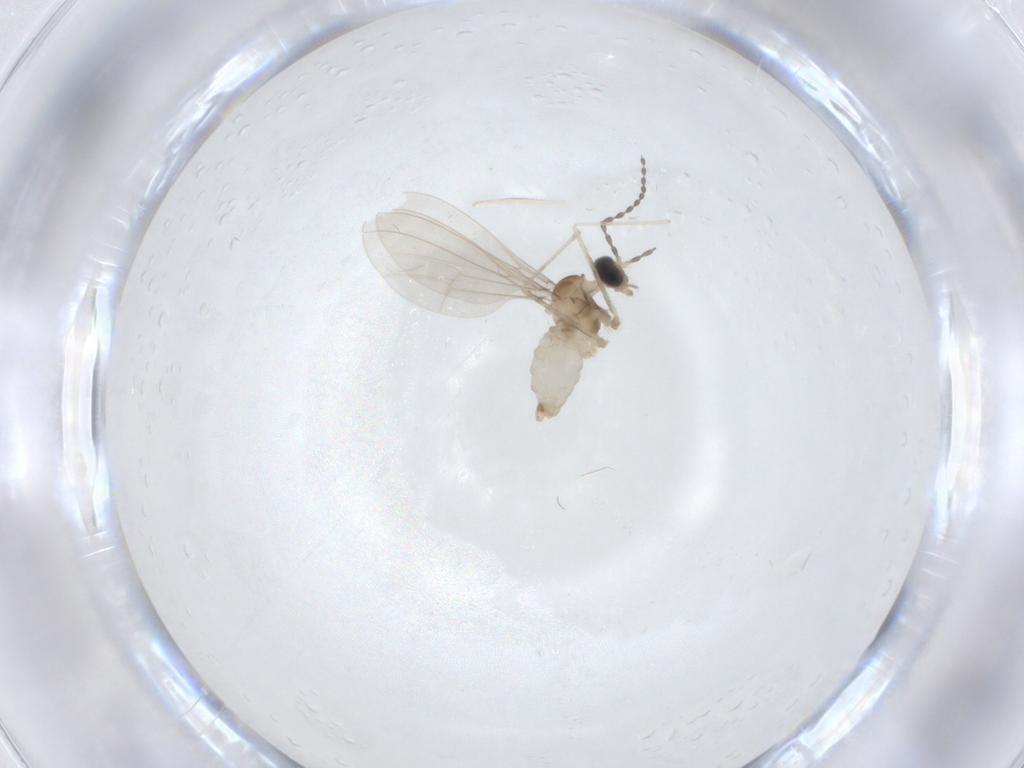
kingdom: Animalia
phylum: Arthropoda
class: Insecta
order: Diptera
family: Cecidomyiidae
